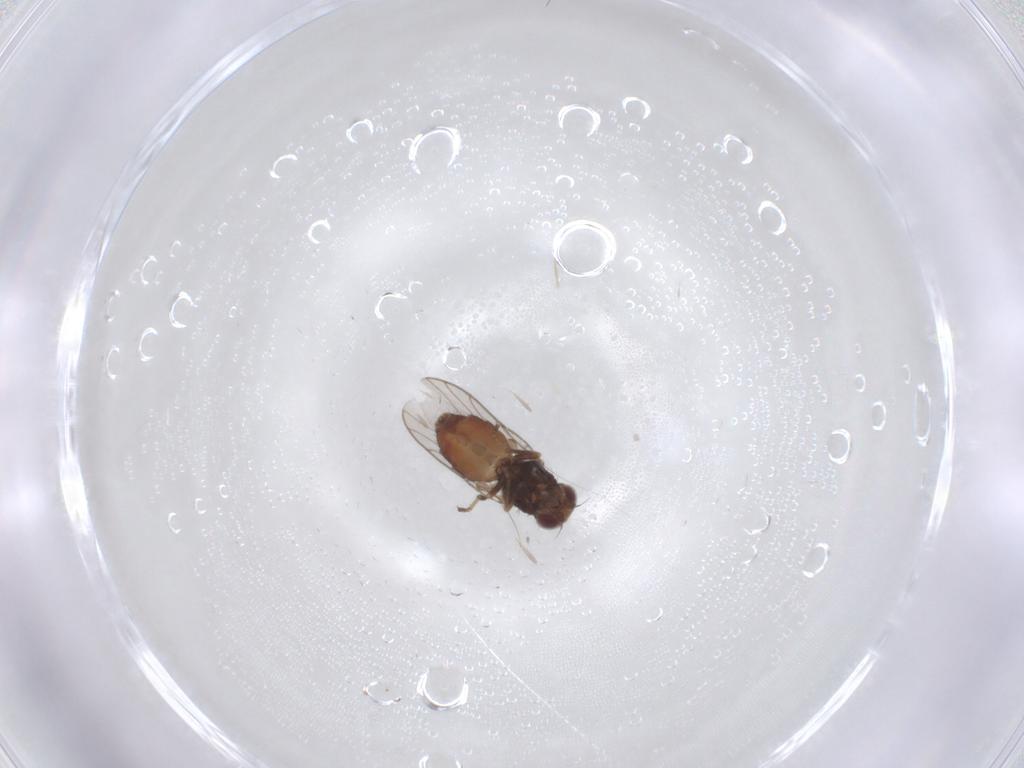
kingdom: Animalia
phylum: Arthropoda
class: Insecta
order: Diptera
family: Chloropidae
